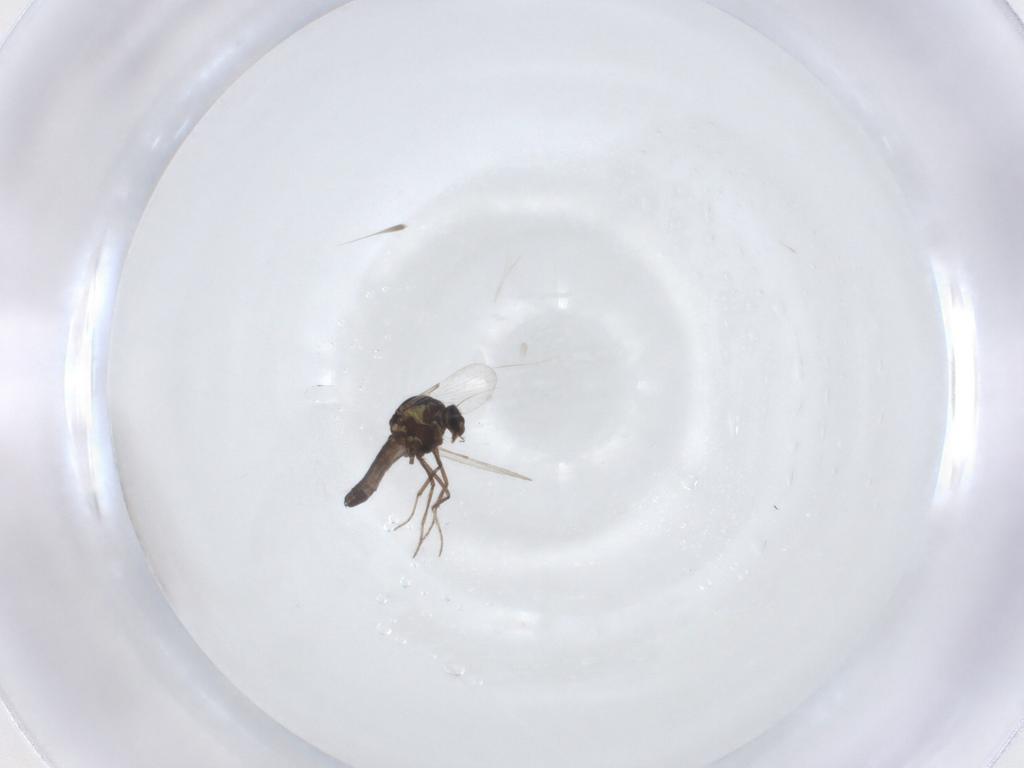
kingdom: Animalia
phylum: Arthropoda
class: Insecta
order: Diptera
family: Ceratopogonidae
